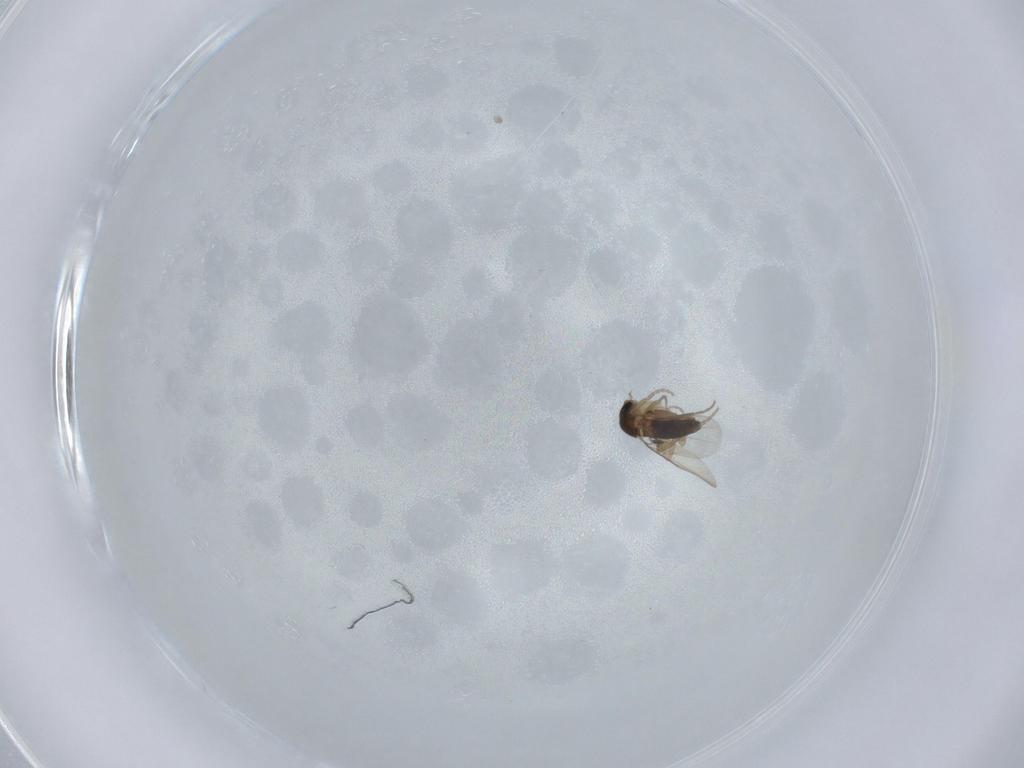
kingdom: Animalia
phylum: Arthropoda
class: Insecta
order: Diptera
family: Phoridae
